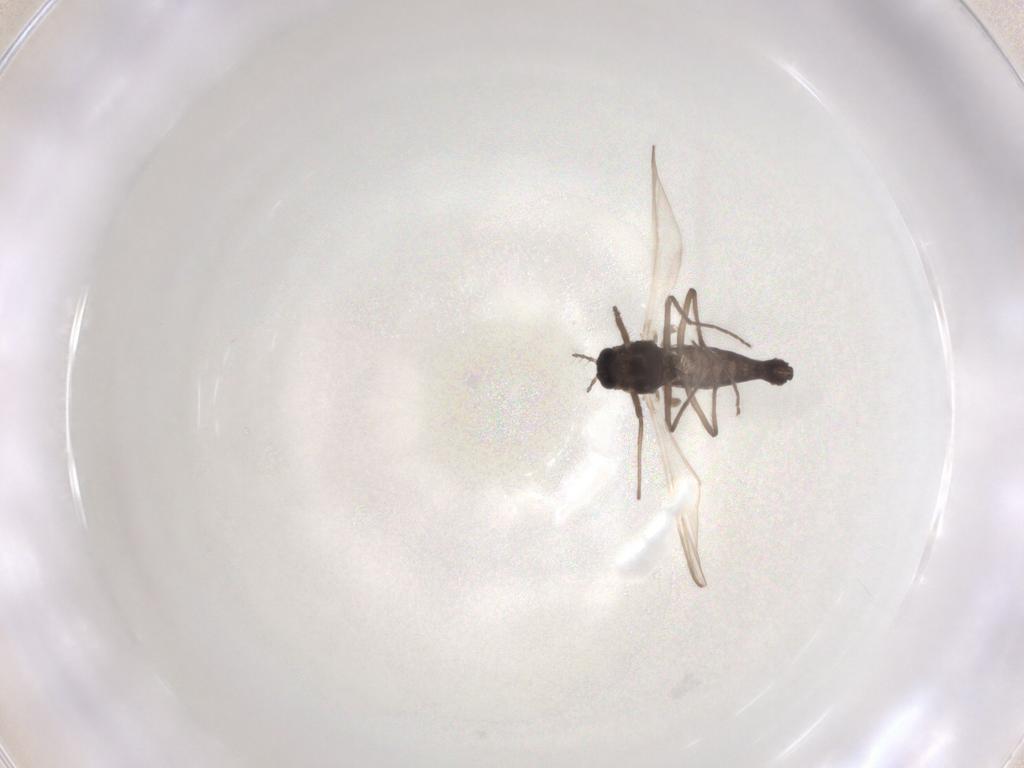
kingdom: Animalia
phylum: Arthropoda
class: Insecta
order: Diptera
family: Chironomidae
